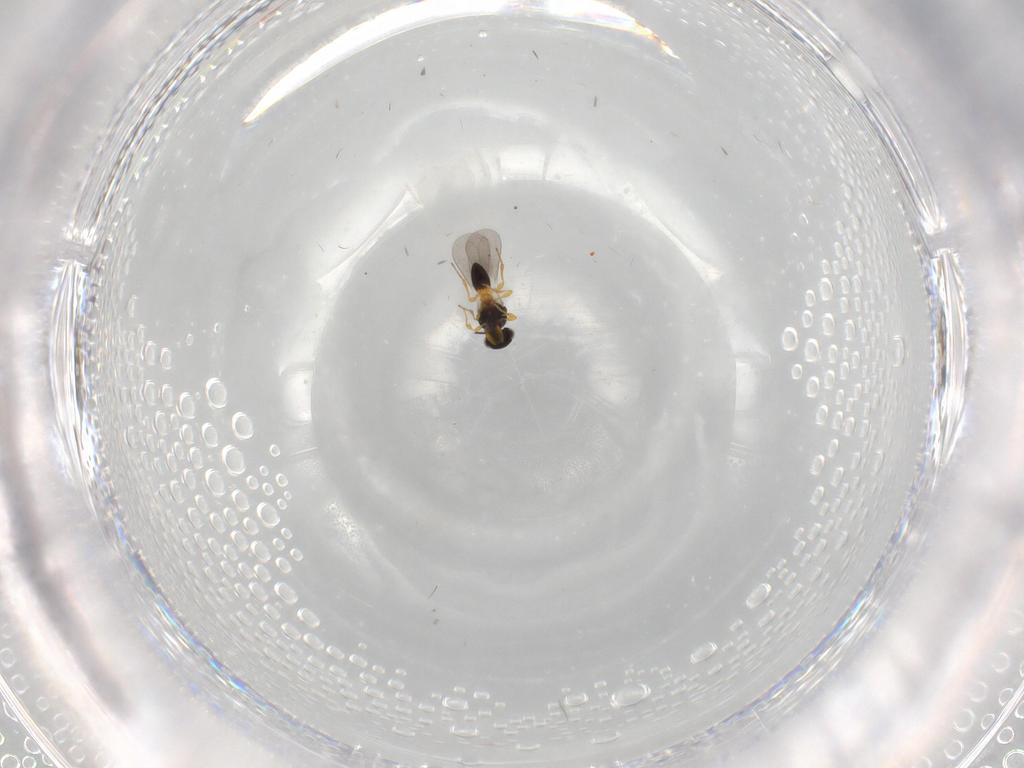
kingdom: Animalia
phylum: Arthropoda
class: Insecta
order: Hymenoptera
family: Platygastridae
